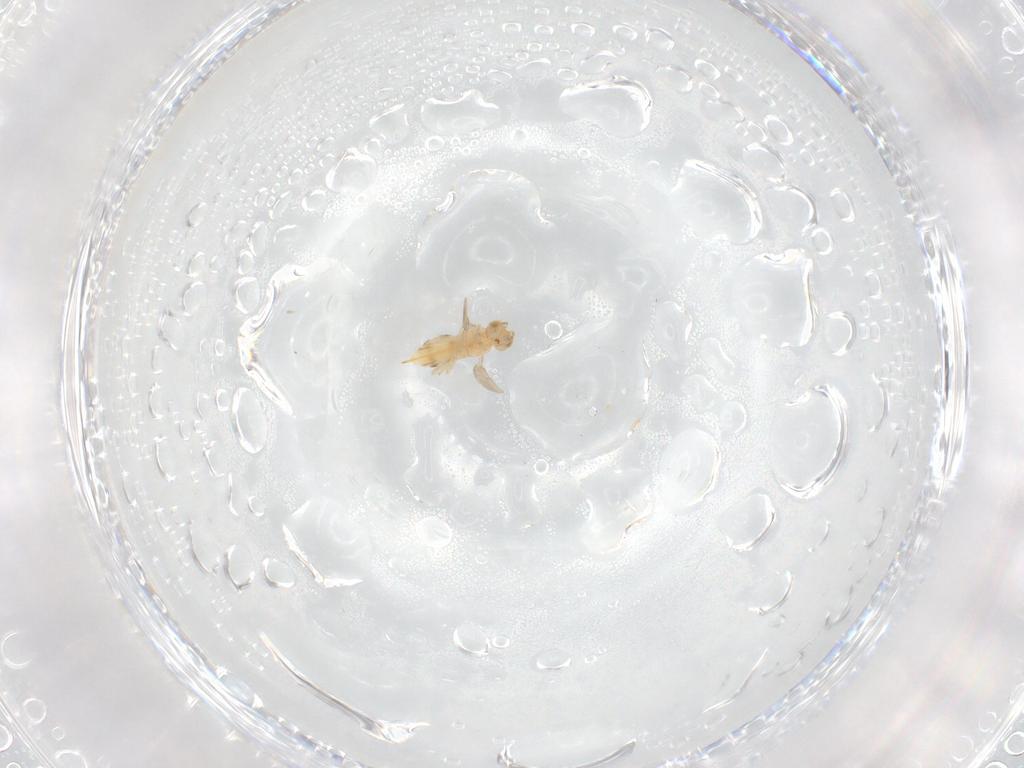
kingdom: Animalia
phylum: Arthropoda
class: Insecta
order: Hymenoptera
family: Aphelinidae
